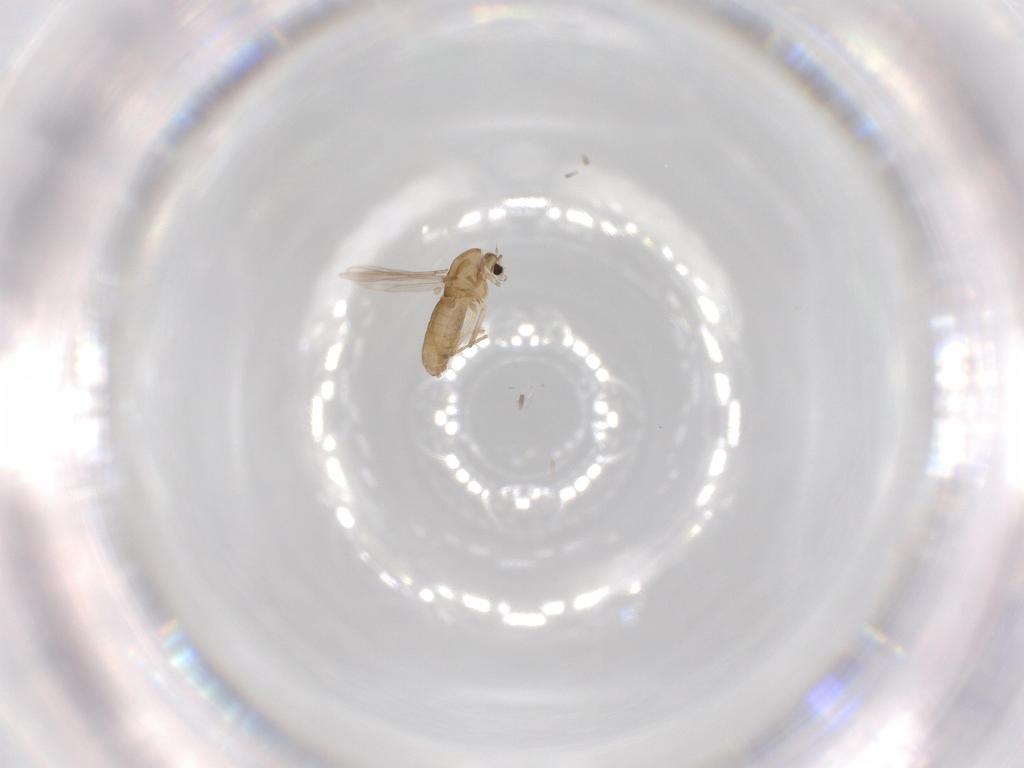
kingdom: Animalia
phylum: Arthropoda
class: Insecta
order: Diptera
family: Chironomidae
